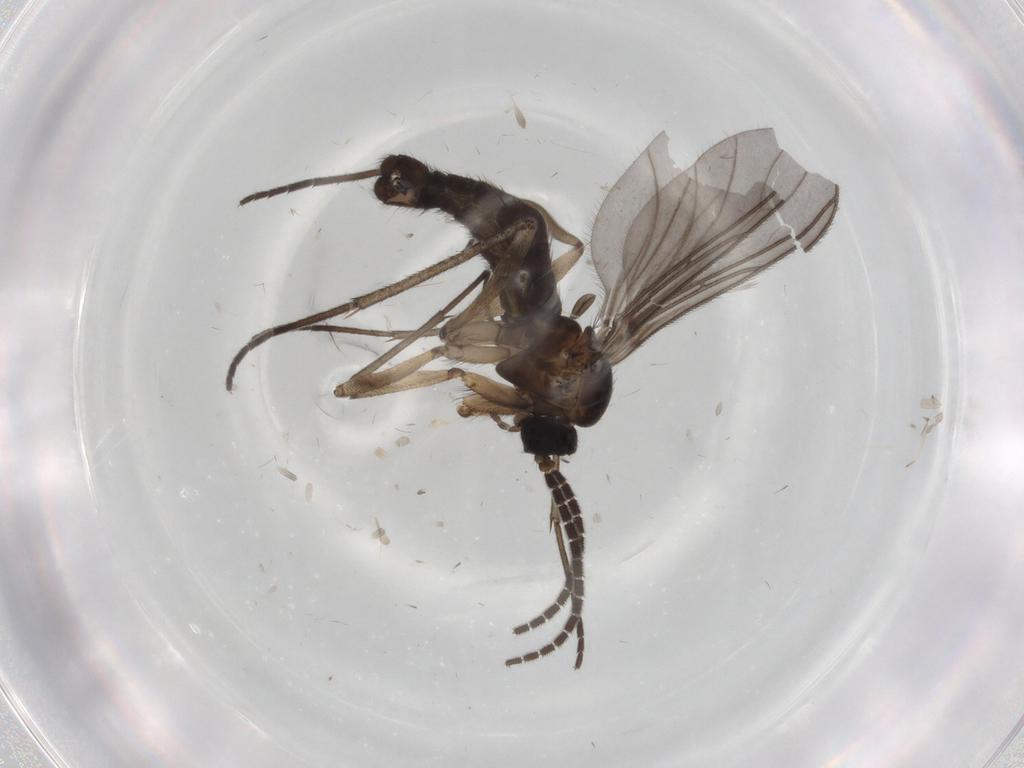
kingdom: Animalia
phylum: Arthropoda
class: Insecta
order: Diptera
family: Sciaridae
